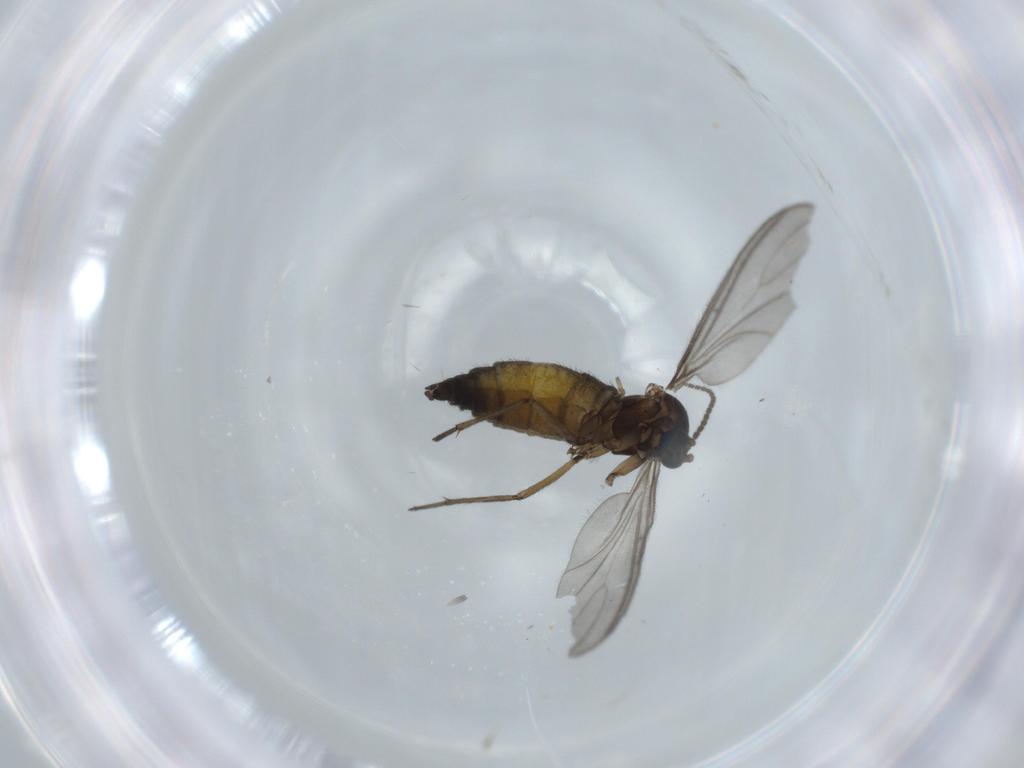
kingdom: Animalia
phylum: Arthropoda
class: Insecta
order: Diptera
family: Sciaridae
